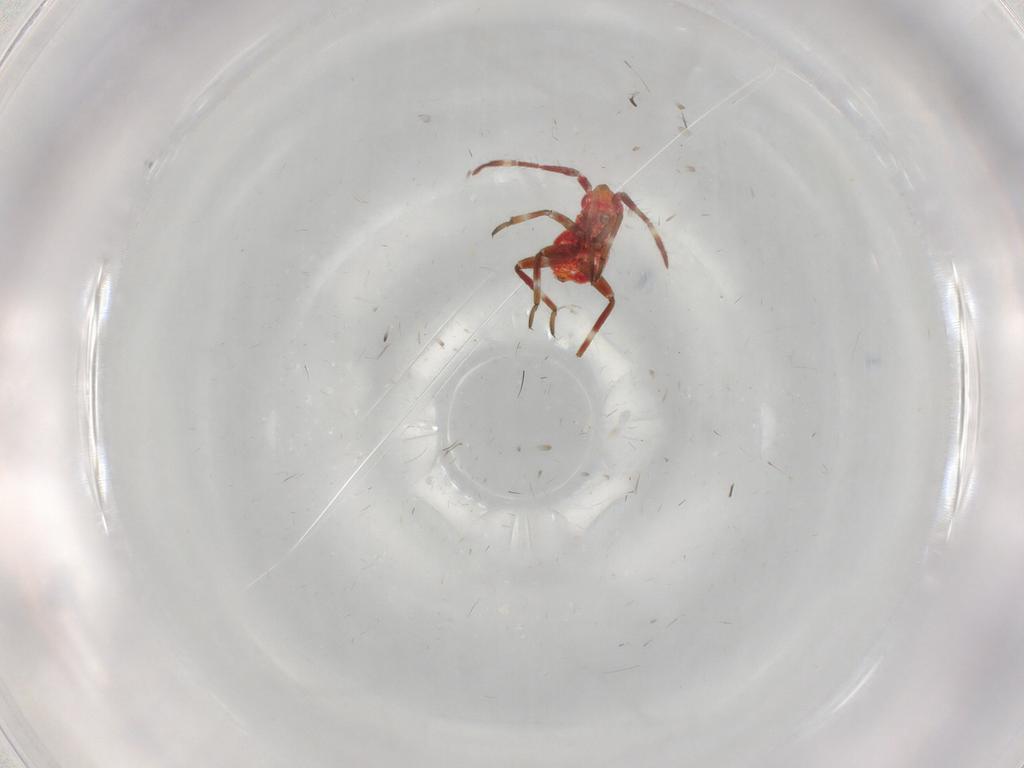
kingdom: Animalia
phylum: Arthropoda
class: Insecta
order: Hemiptera
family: Miridae
